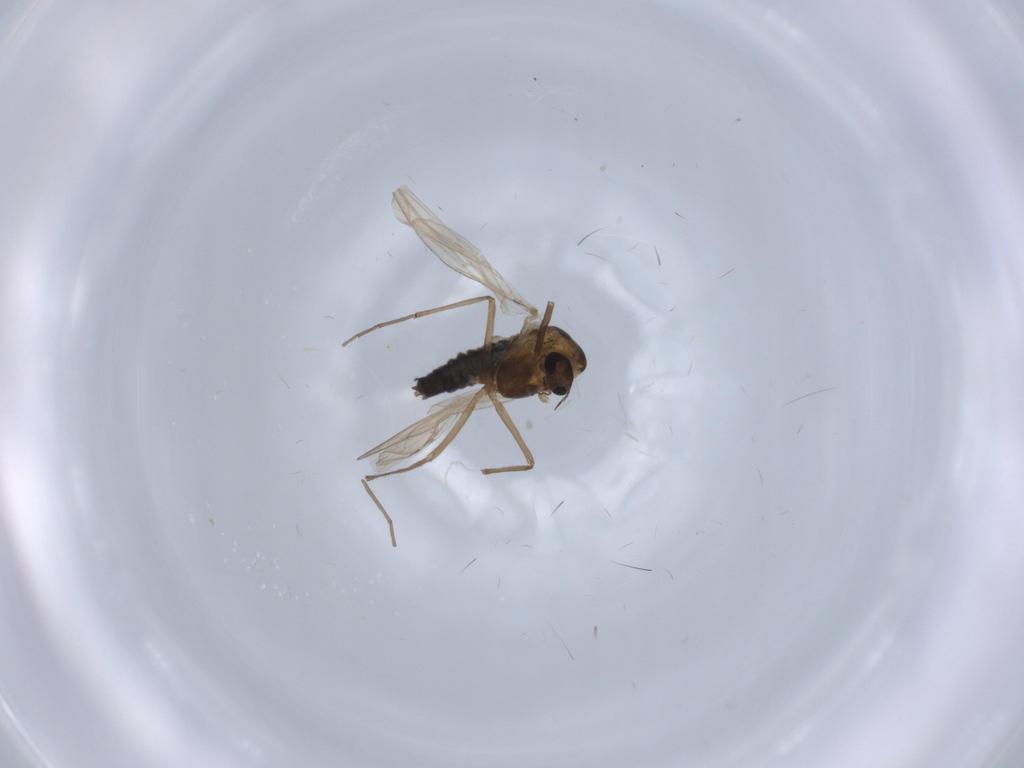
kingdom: Animalia
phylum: Arthropoda
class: Insecta
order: Diptera
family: Chironomidae
